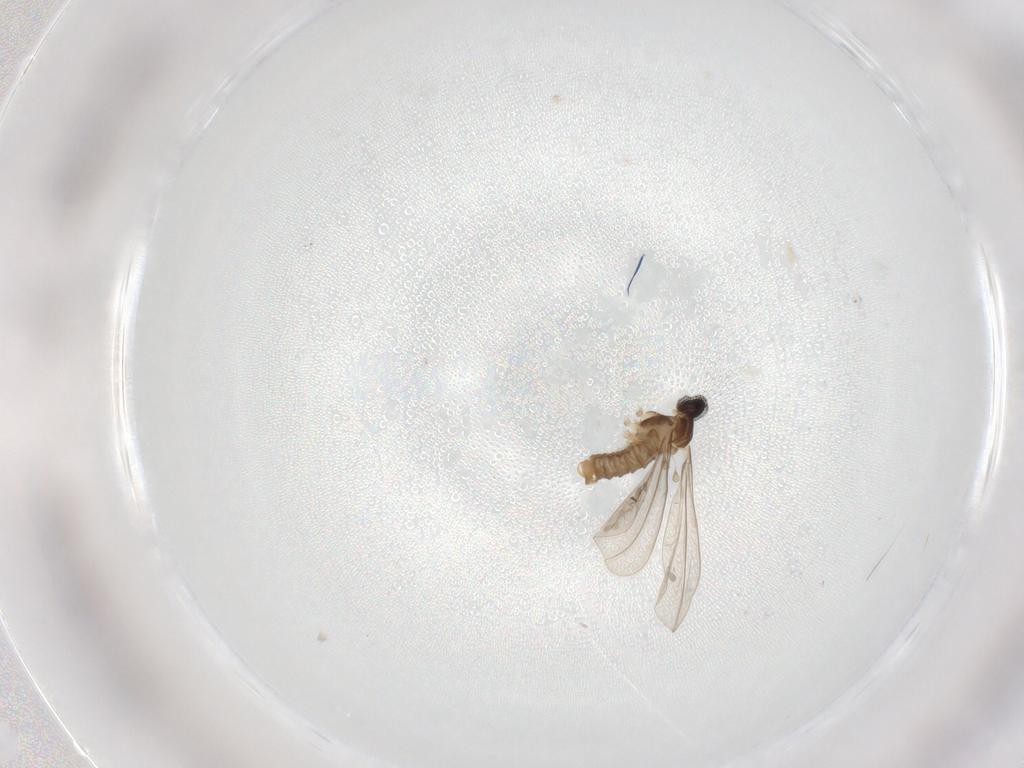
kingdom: Animalia
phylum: Arthropoda
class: Insecta
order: Diptera
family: Cecidomyiidae
